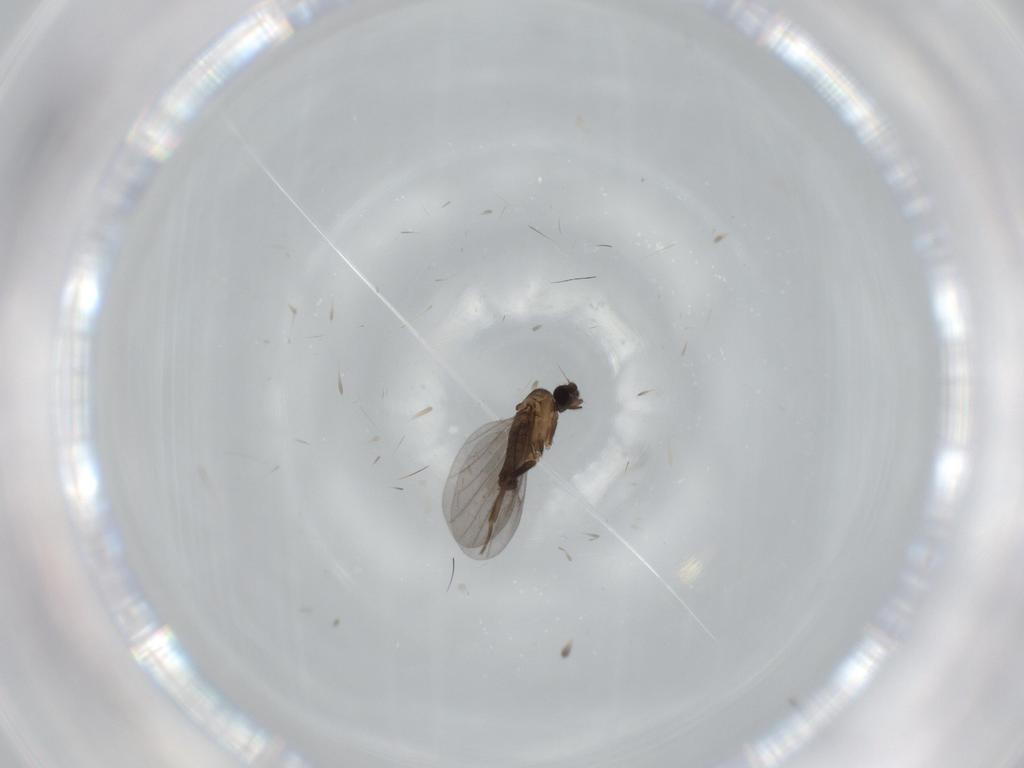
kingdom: Animalia
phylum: Arthropoda
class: Insecta
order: Diptera
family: Phoridae
